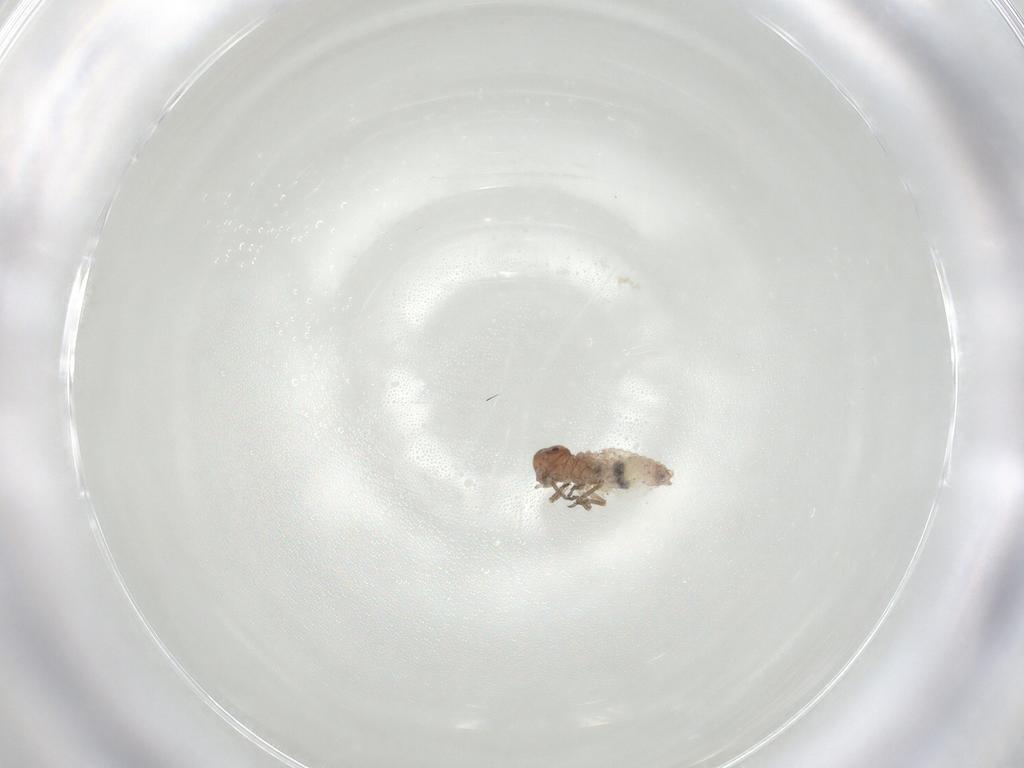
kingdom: Animalia
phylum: Arthropoda
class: Insecta
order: Psocodea
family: Psocidae
